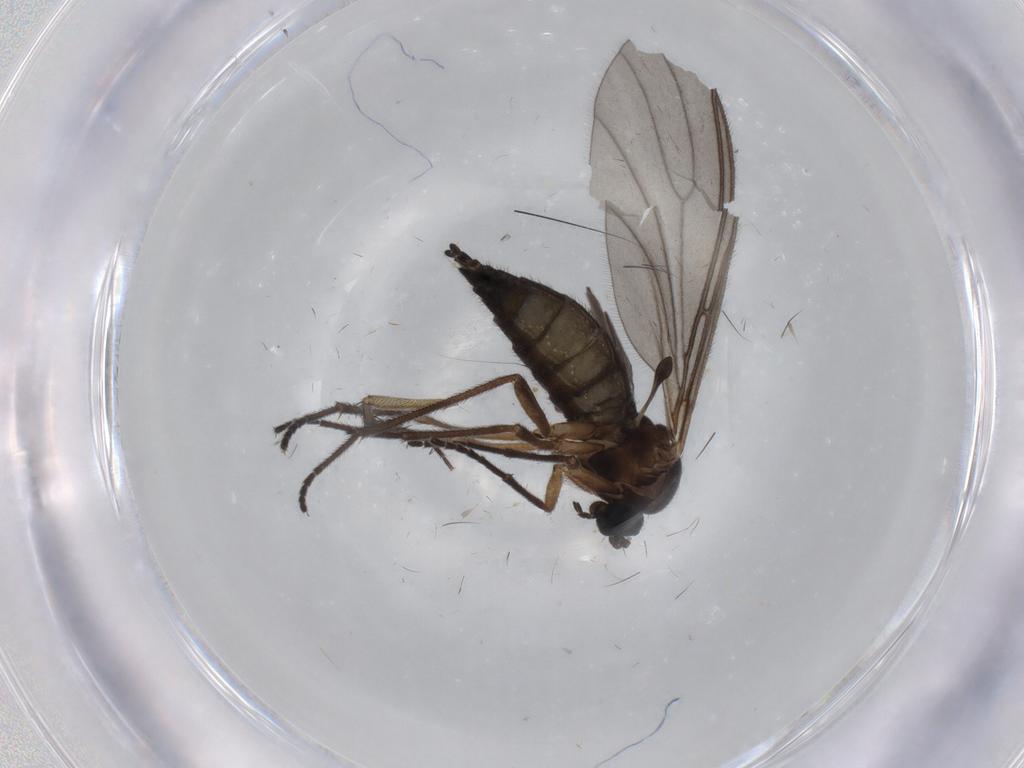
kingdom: Animalia
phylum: Arthropoda
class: Insecta
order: Diptera
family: Sciaridae
